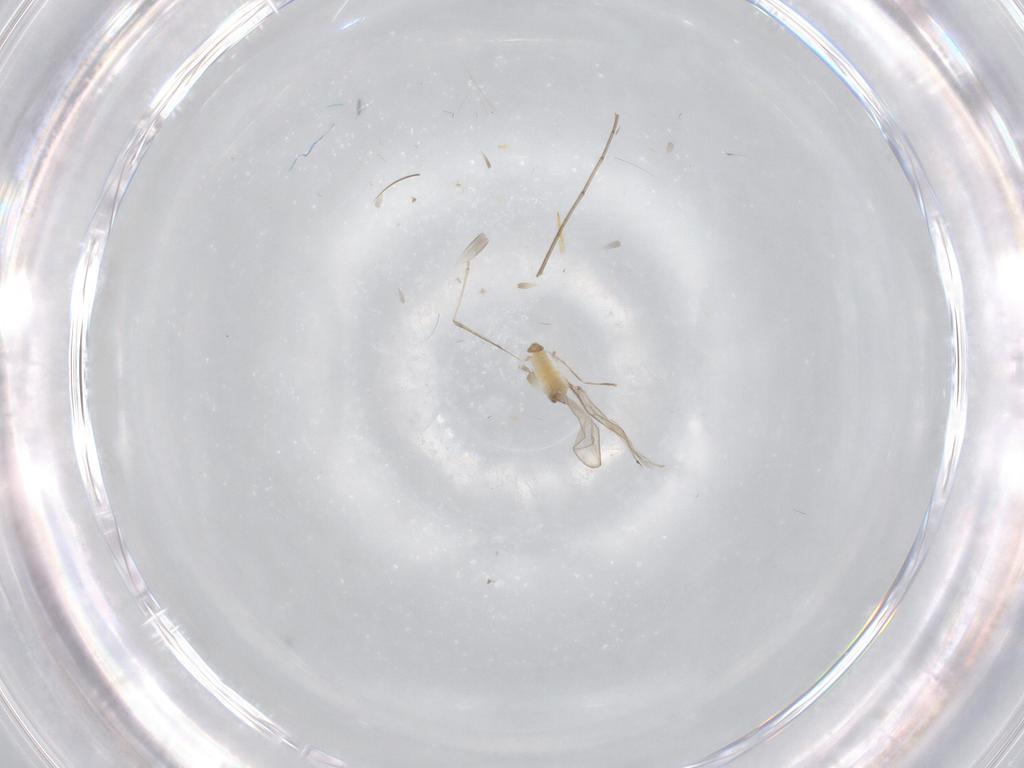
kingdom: Animalia
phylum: Arthropoda
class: Insecta
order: Diptera
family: Cecidomyiidae
